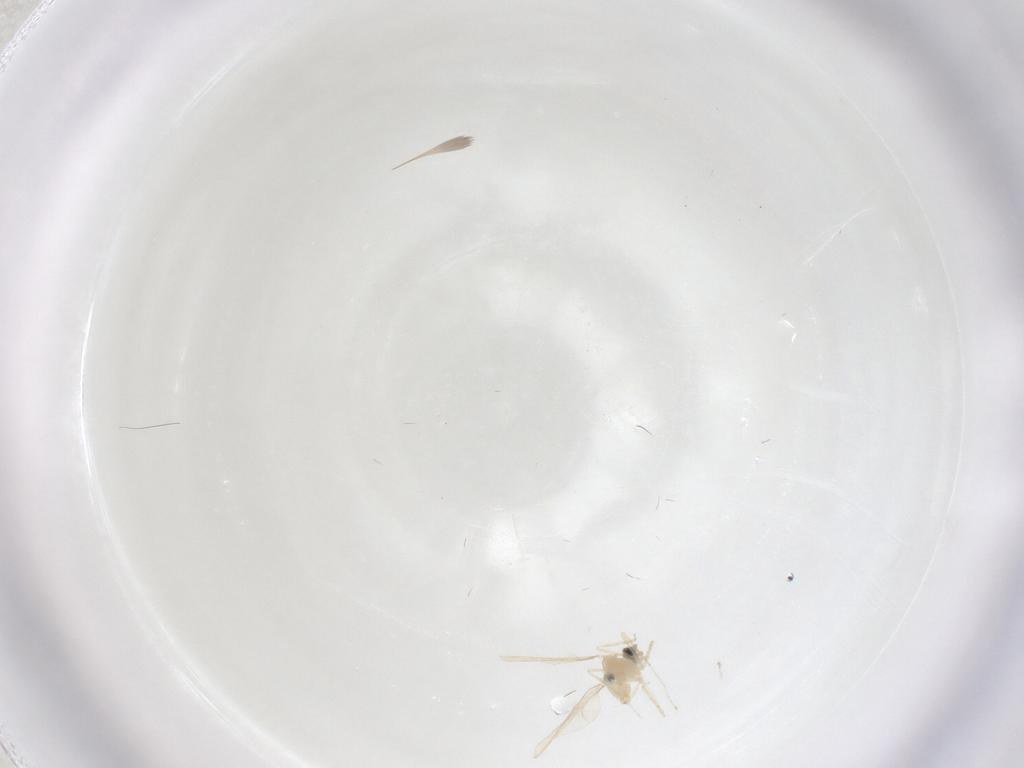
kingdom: Animalia
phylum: Arthropoda
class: Insecta
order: Diptera
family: Cecidomyiidae
